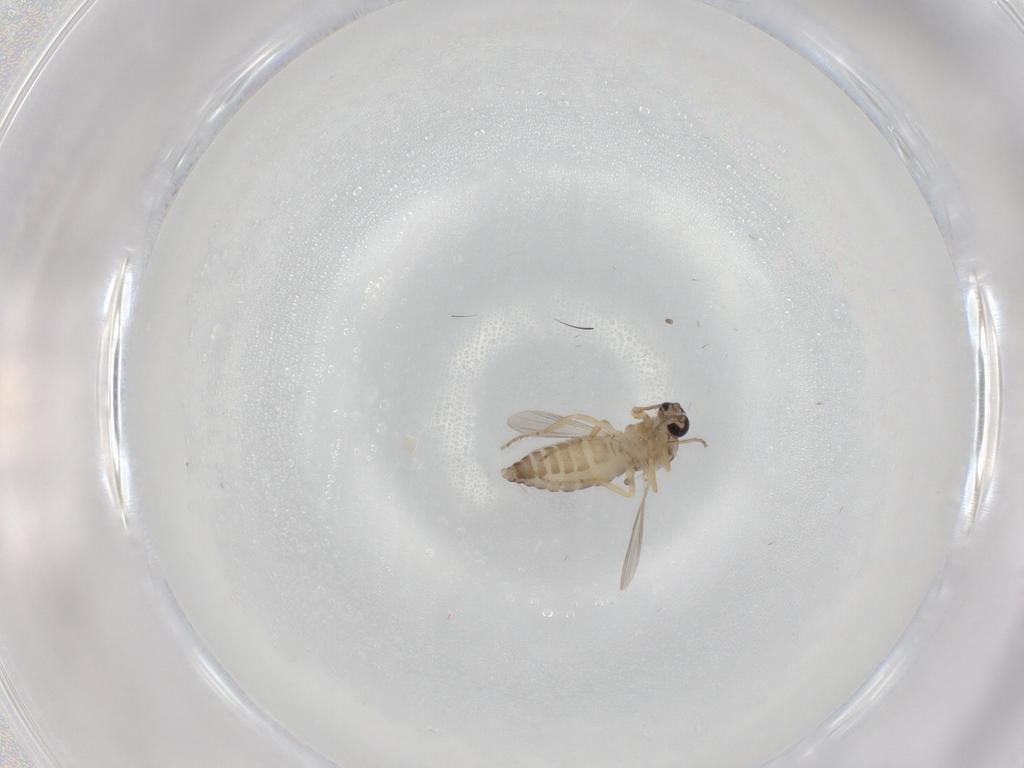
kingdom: Animalia
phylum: Arthropoda
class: Insecta
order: Diptera
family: Ceratopogonidae
